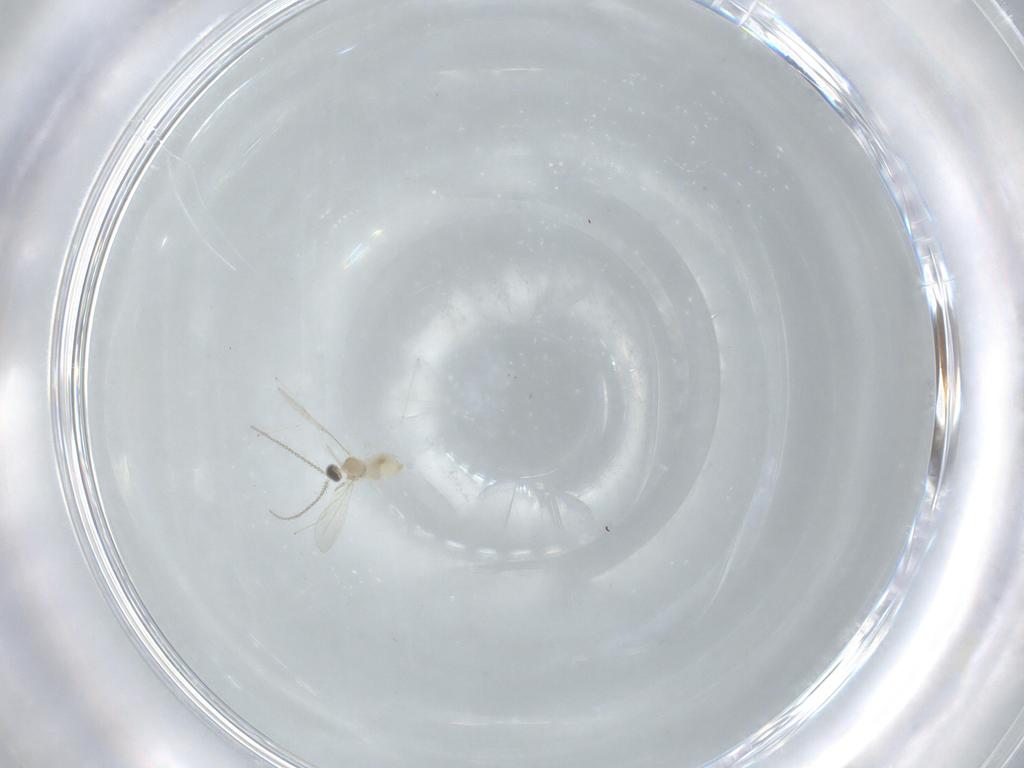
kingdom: Animalia
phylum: Arthropoda
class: Insecta
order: Diptera
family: Cecidomyiidae
